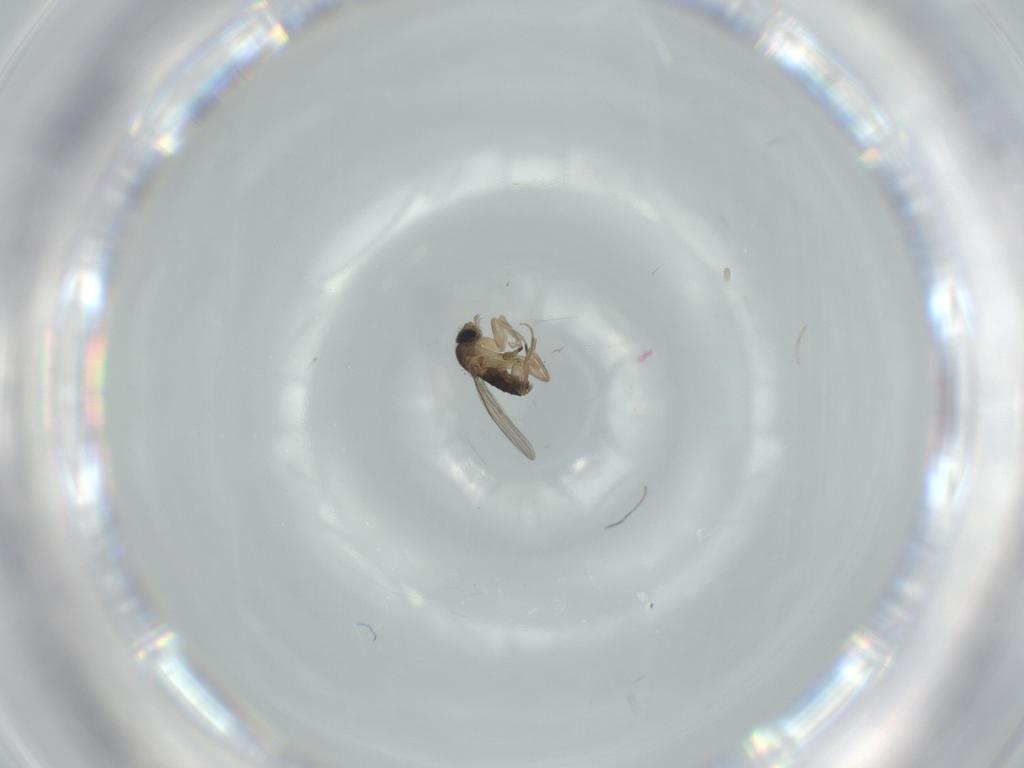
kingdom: Animalia
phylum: Arthropoda
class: Insecta
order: Diptera
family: Phoridae
